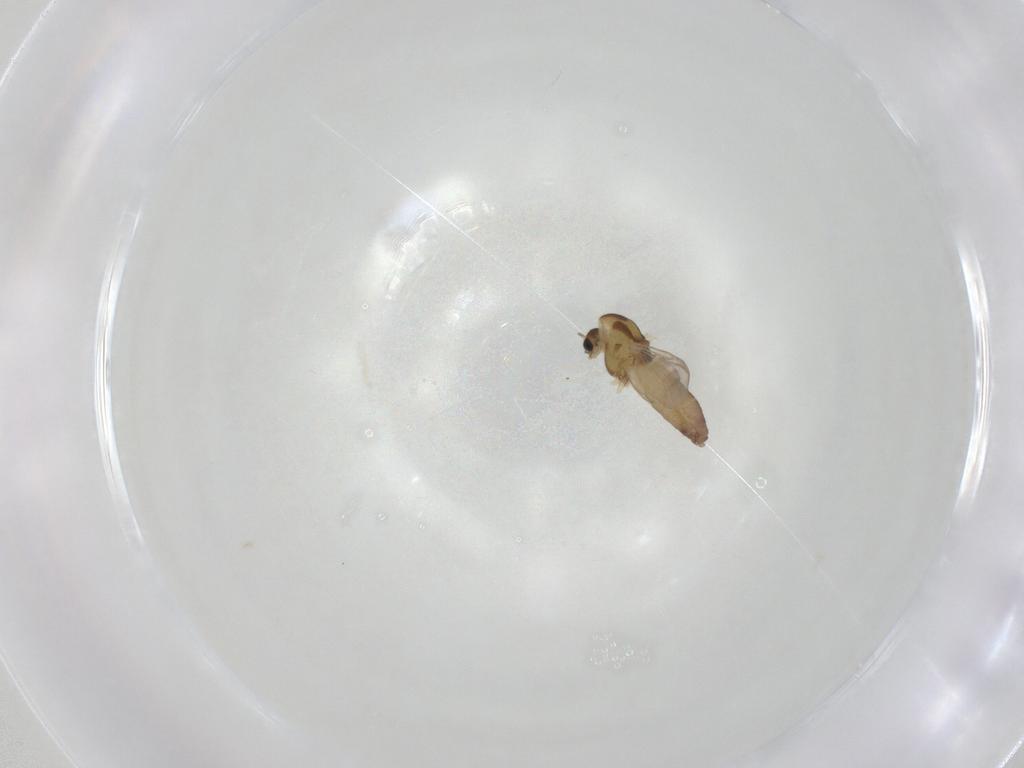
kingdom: Animalia
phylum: Arthropoda
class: Insecta
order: Diptera
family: Chironomidae
